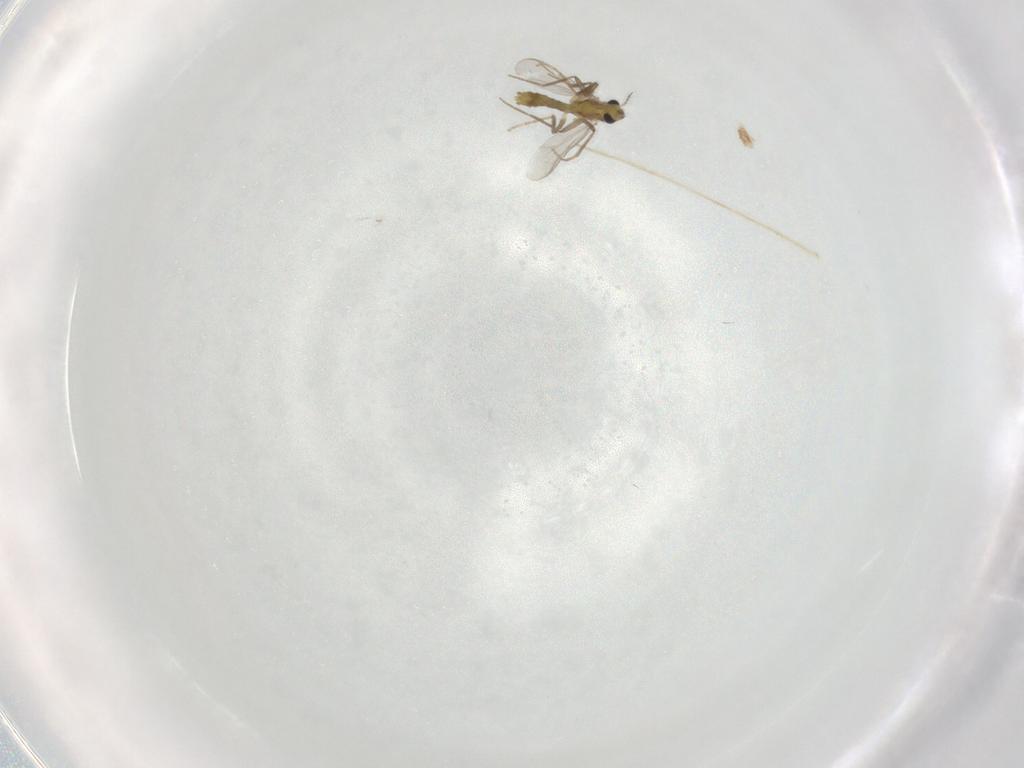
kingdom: Animalia
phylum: Arthropoda
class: Insecta
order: Diptera
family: Chironomidae
